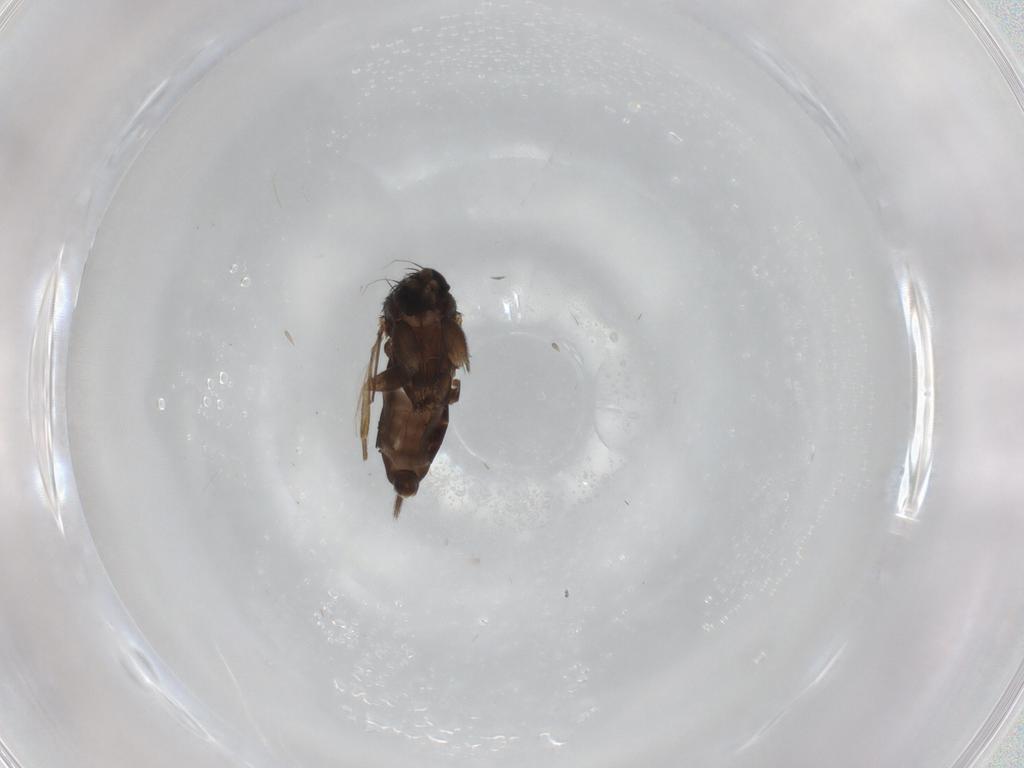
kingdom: Animalia
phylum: Arthropoda
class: Insecta
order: Diptera
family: Phoridae
